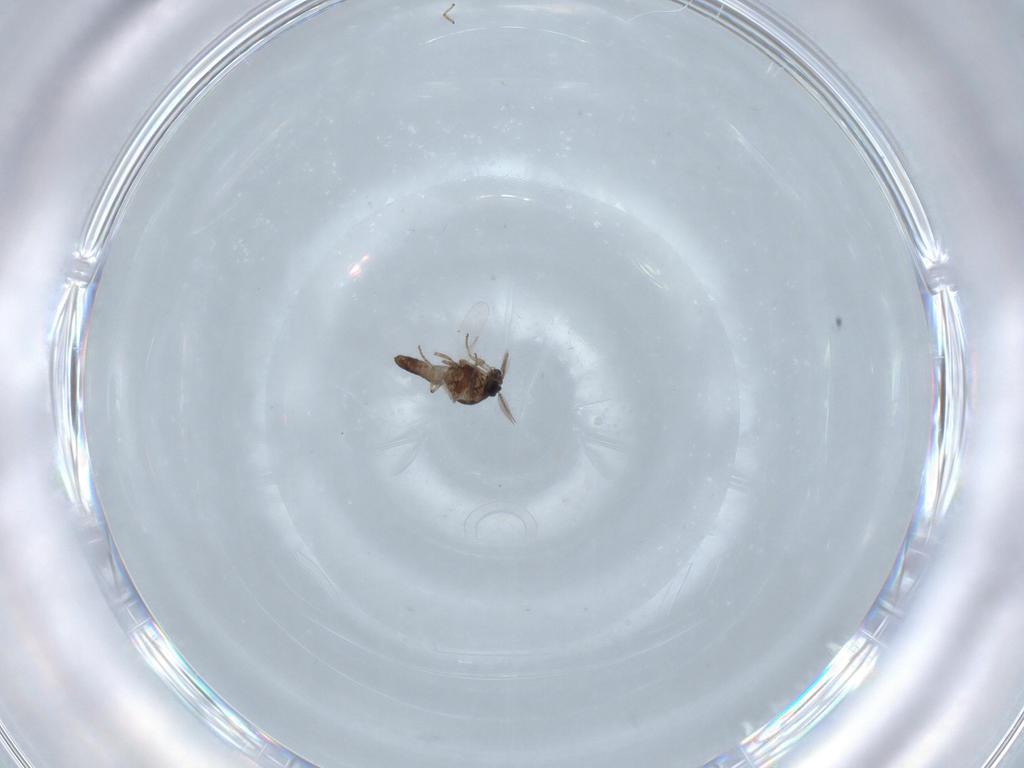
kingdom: Animalia
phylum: Arthropoda
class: Insecta
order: Diptera
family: Ceratopogonidae
